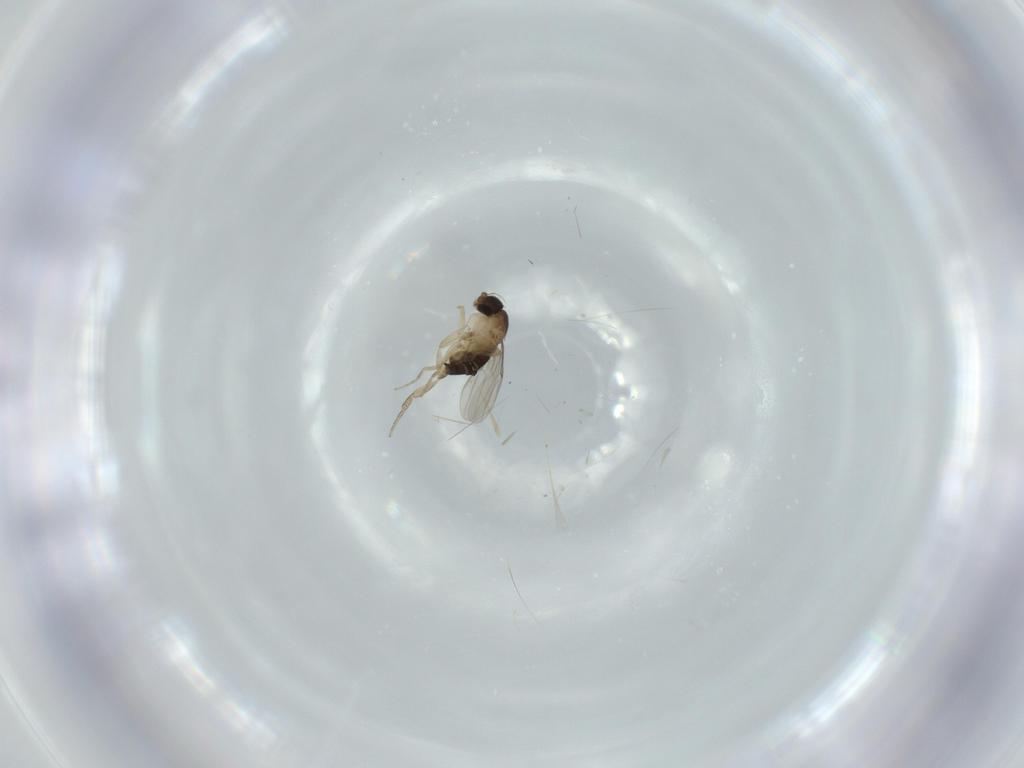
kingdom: Animalia
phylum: Arthropoda
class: Insecta
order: Diptera
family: Phoridae
